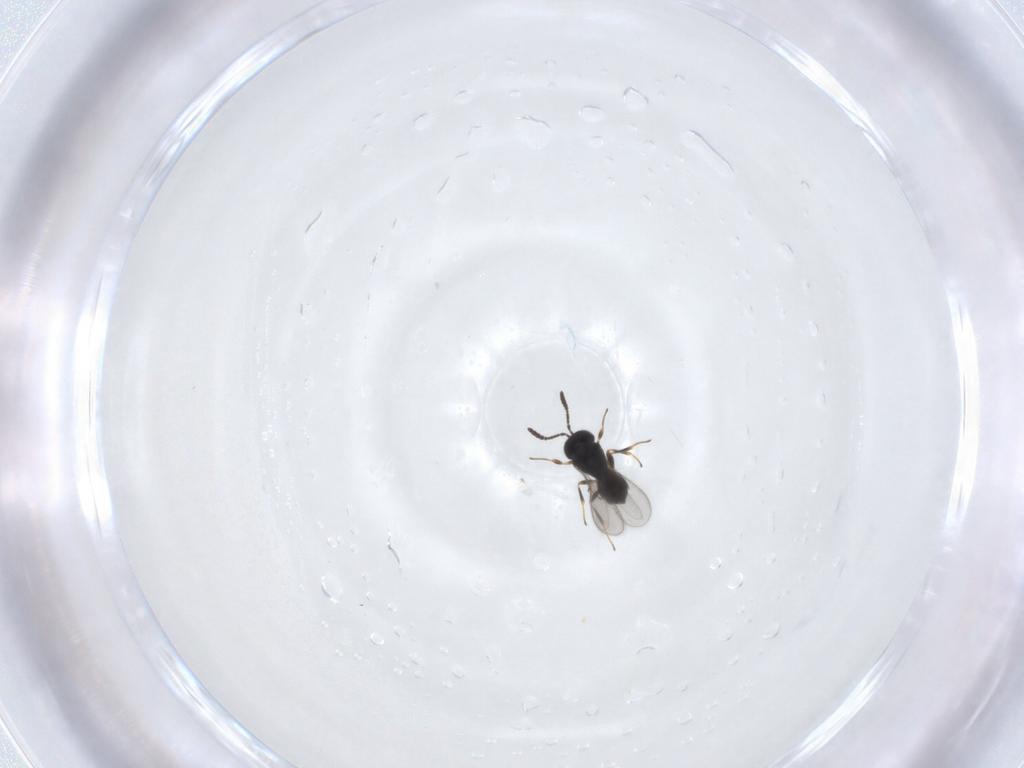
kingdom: Animalia
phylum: Arthropoda
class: Insecta
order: Hymenoptera
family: Scelionidae
